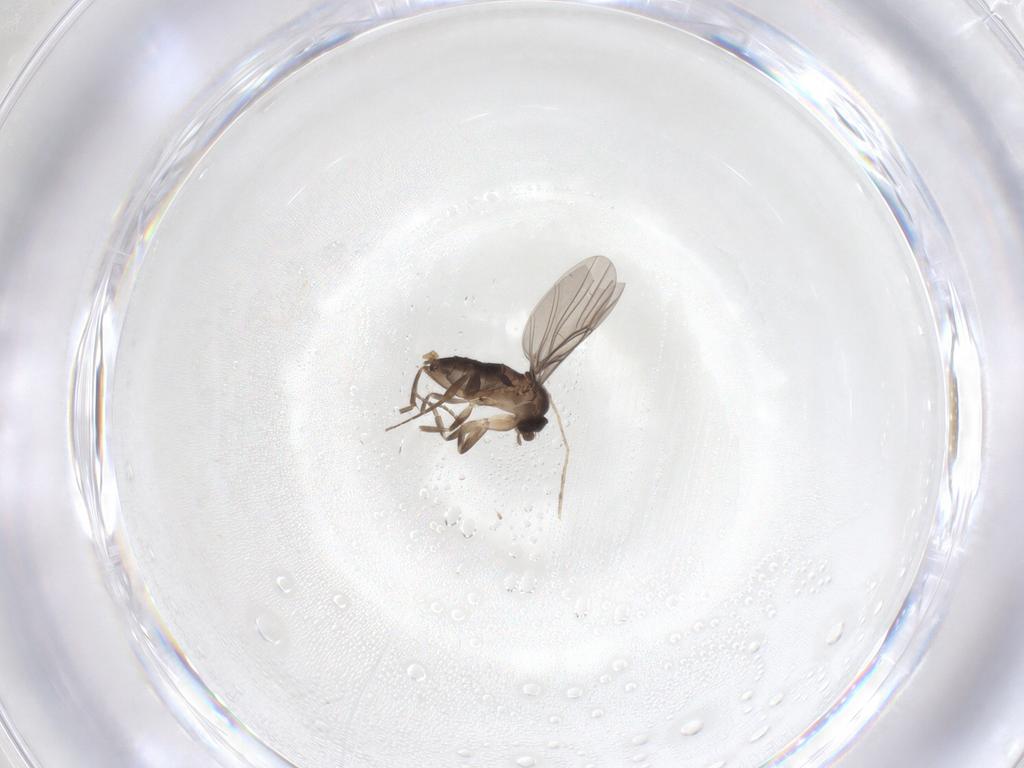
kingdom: Animalia
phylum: Arthropoda
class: Insecta
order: Diptera
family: Phoridae
